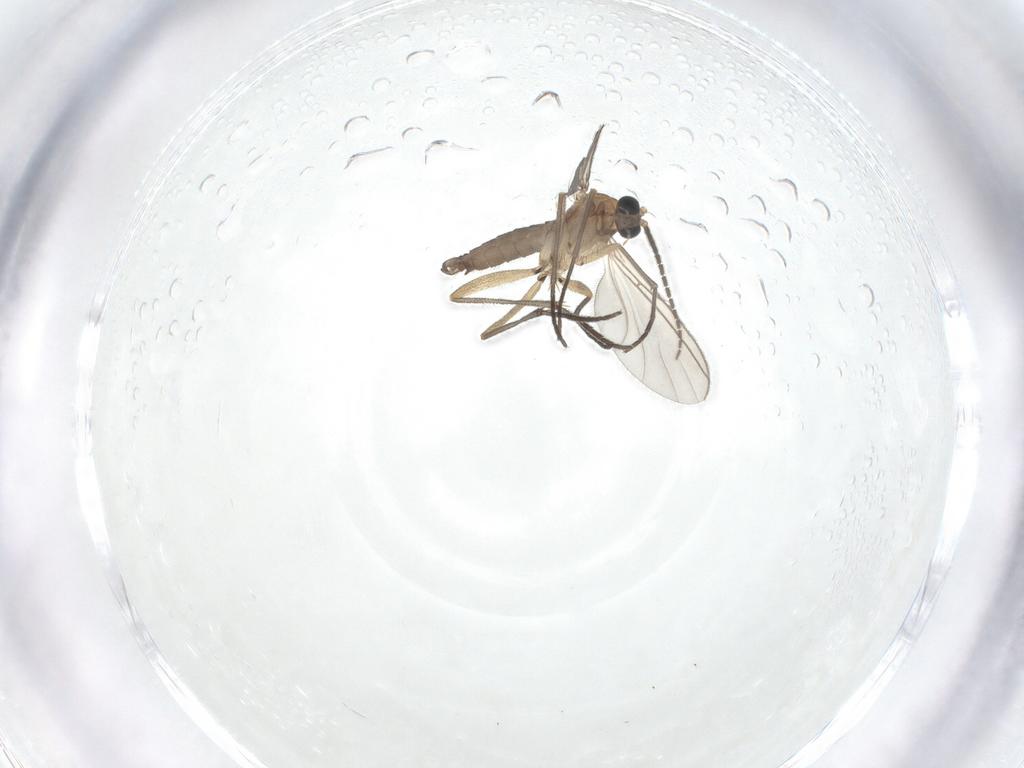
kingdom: Animalia
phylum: Arthropoda
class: Insecta
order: Diptera
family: Sciaridae
